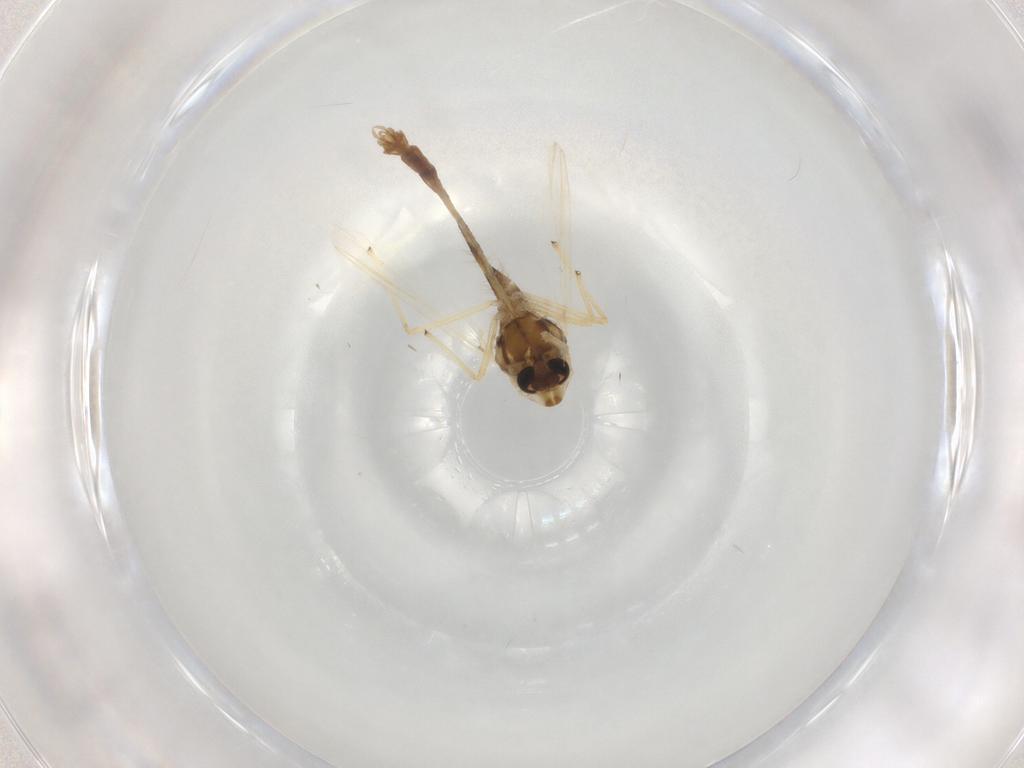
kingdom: Animalia
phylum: Arthropoda
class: Insecta
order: Diptera
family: Chironomidae
